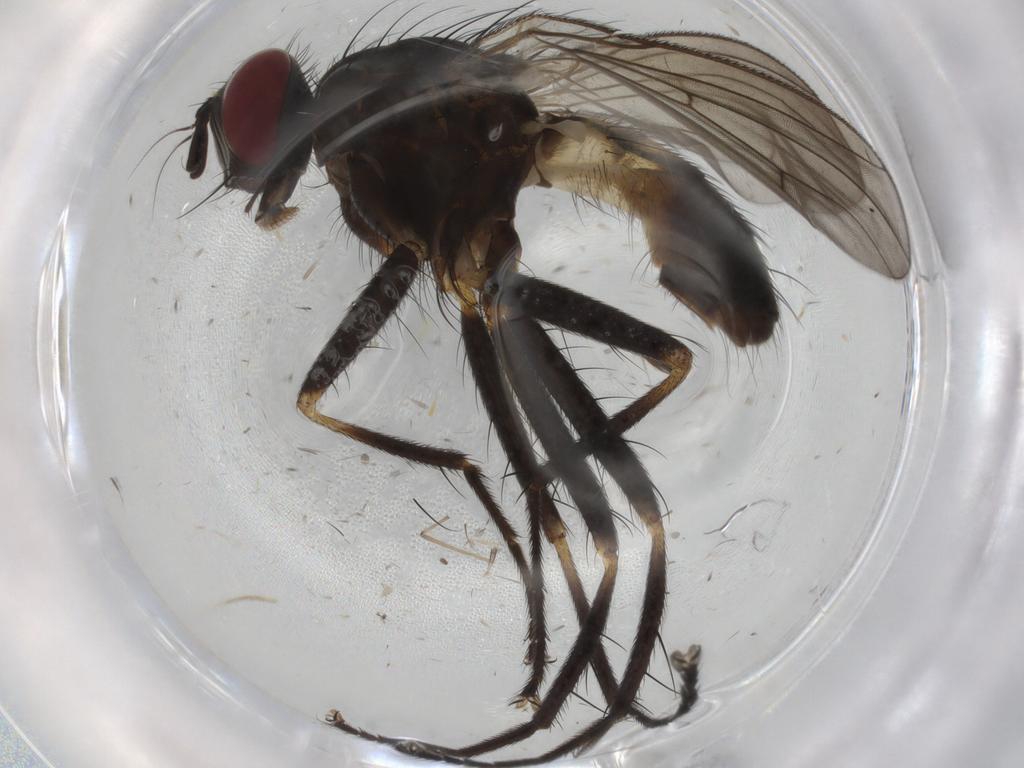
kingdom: Animalia
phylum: Arthropoda
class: Insecta
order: Diptera
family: Muscidae
